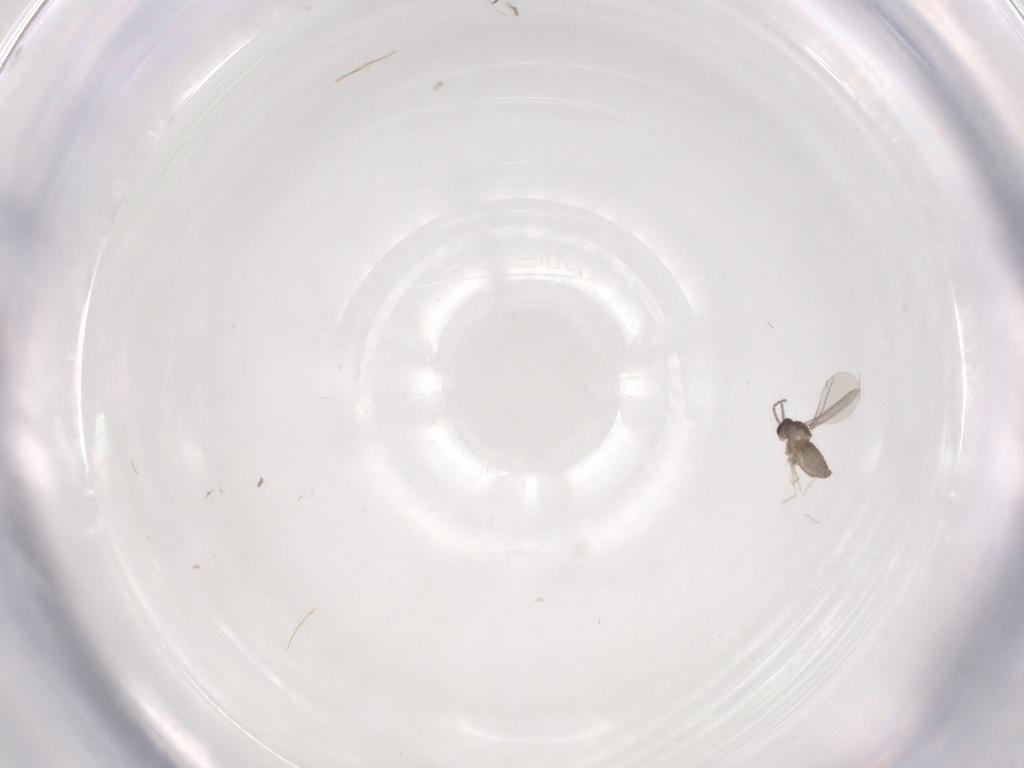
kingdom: Animalia
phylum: Arthropoda
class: Insecta
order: Diptera
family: Cecidomyiidae
